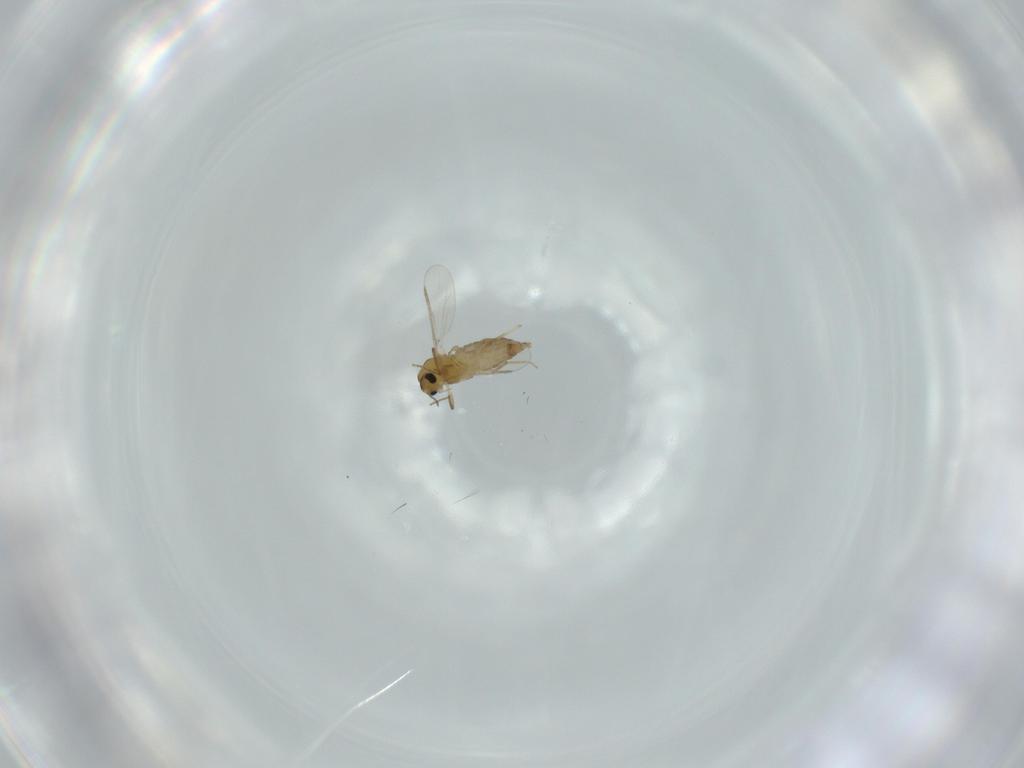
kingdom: Animalia
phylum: Arthropoda
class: Insecta
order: Diptera
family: Chironomidae
